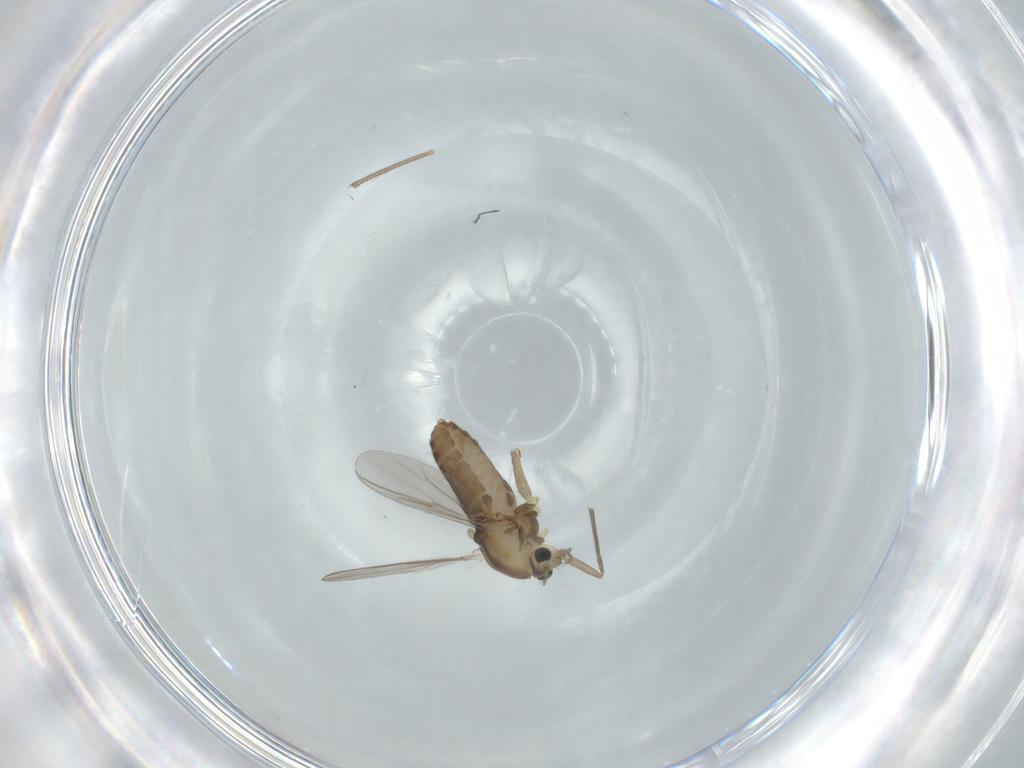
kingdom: Animalia
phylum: Arthropoda
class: Insecta
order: Diptera
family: Chironomidae
